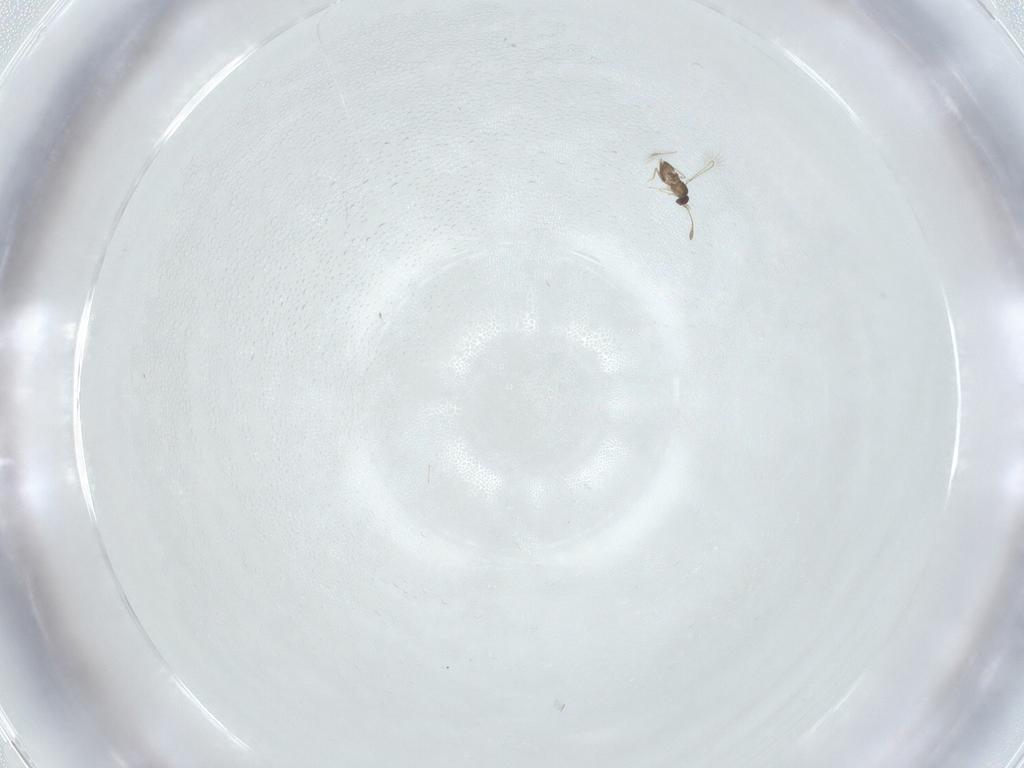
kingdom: Animalia
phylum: Arthropoda
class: Insecta
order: Diptera
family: Cecidomyiidae
